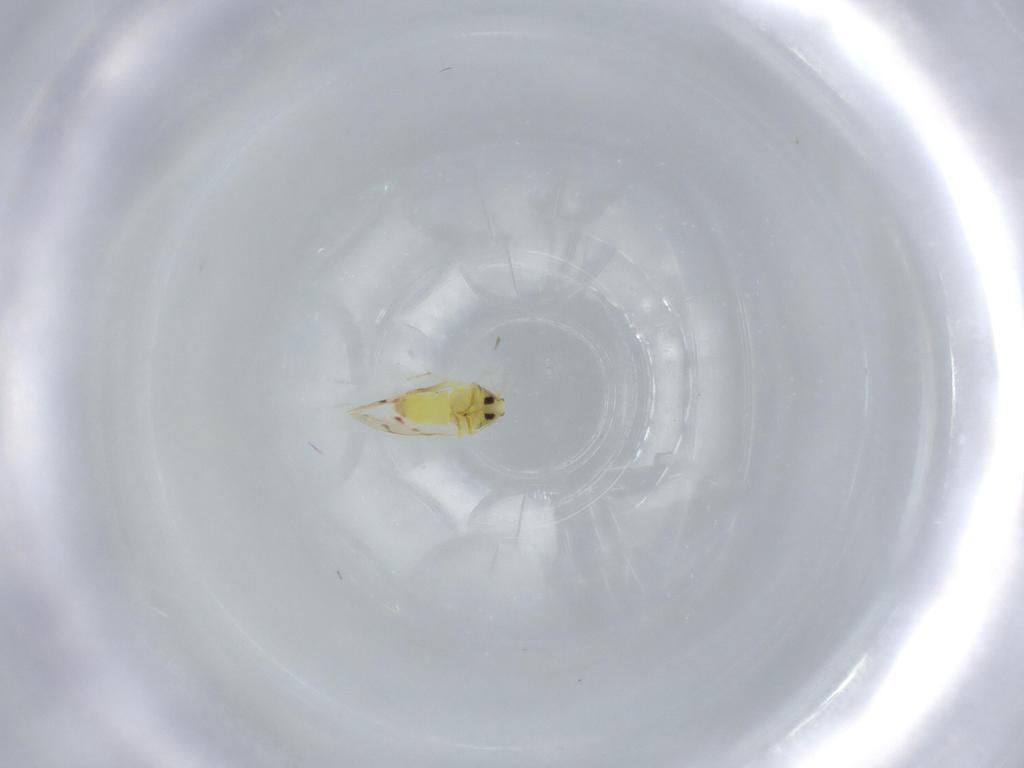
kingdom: Animalia
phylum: Arthropoda
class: Insecta
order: Hemiptera
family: Aleyrodidae
